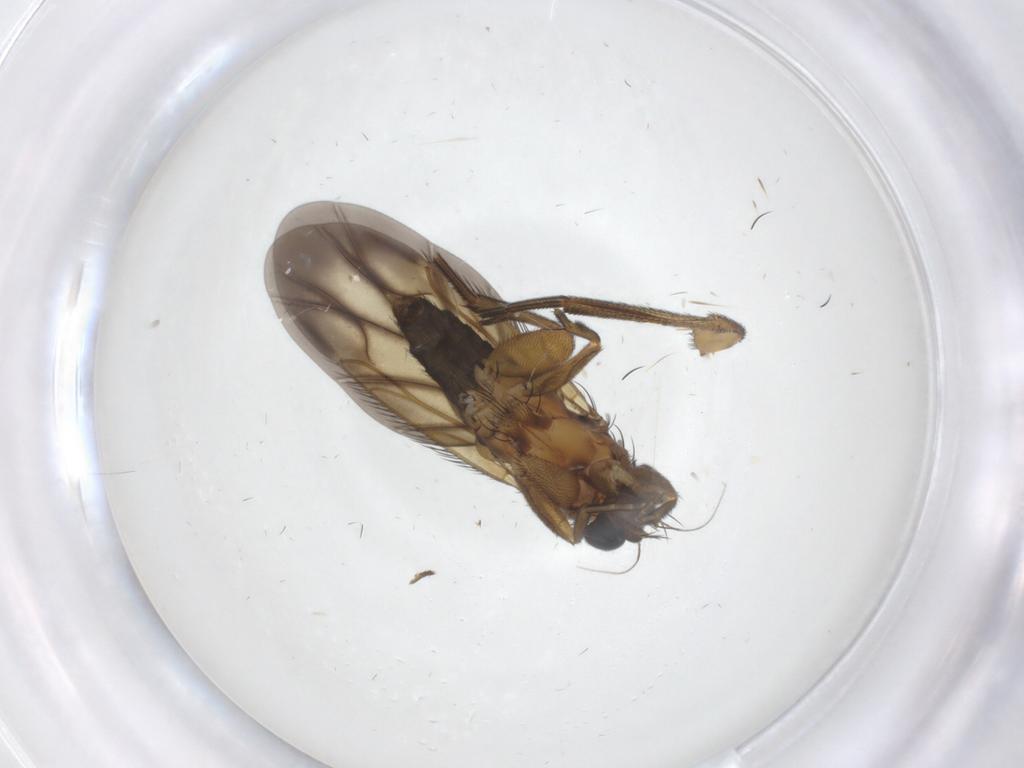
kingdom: Animalia
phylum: Arthropoda
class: Insecta
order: Diptera
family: Phoridae
